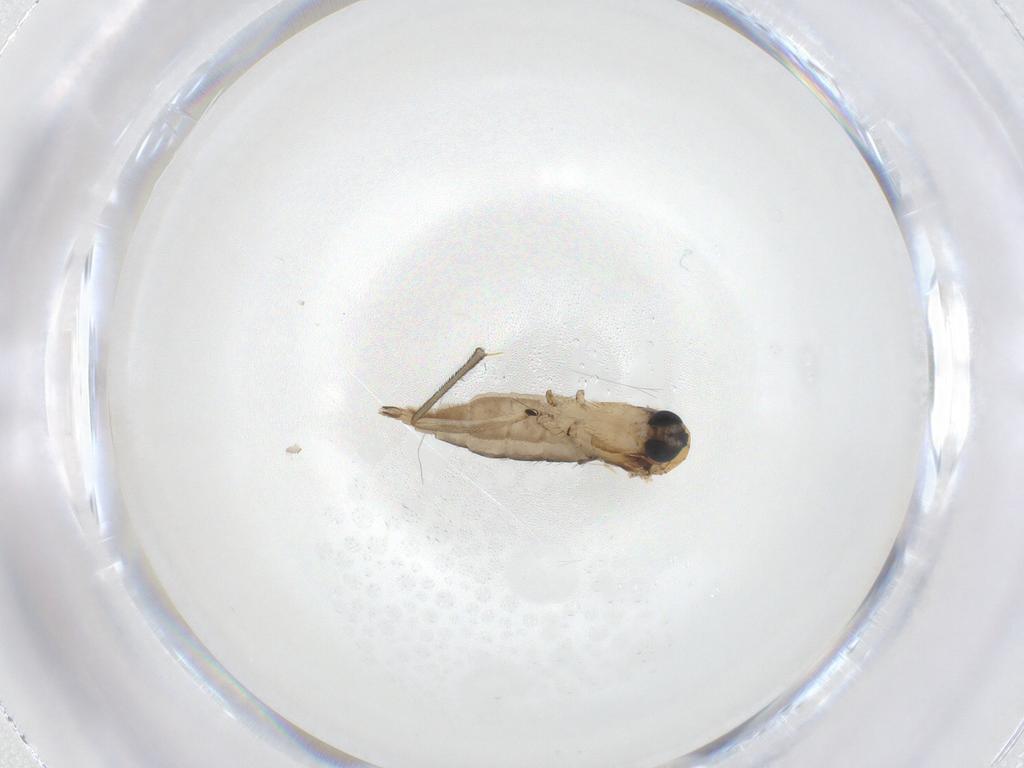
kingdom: Animalia
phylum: Arthropoda
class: Insecta
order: Diptera
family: Sciaridae
